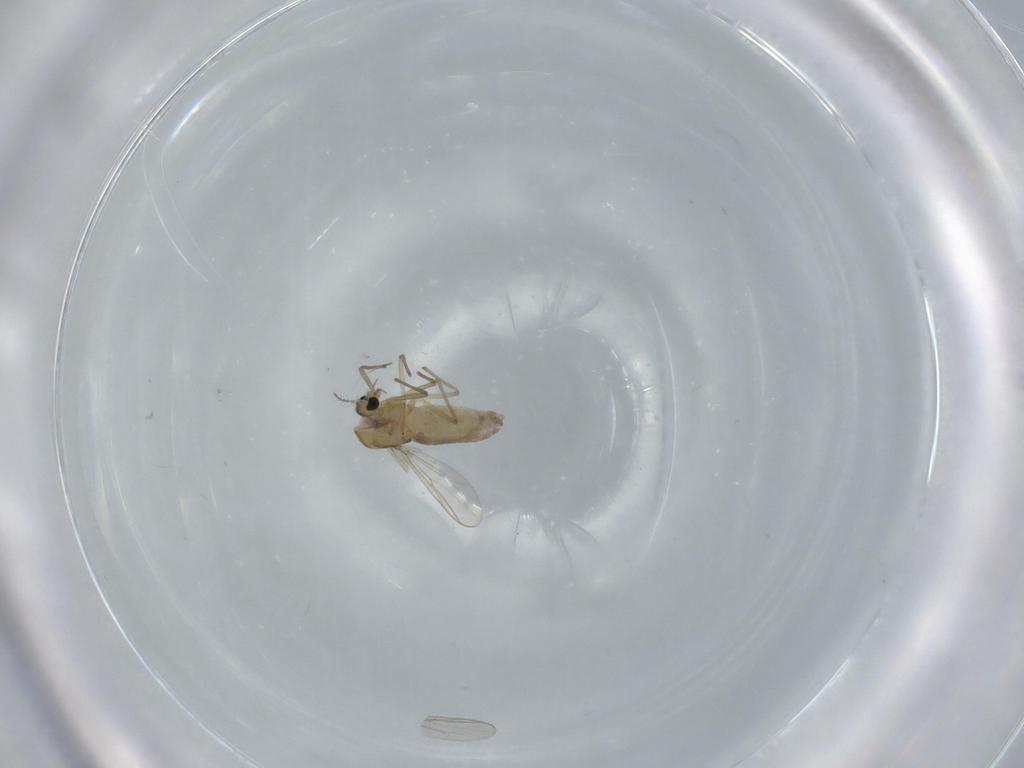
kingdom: Animalia
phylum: Arthropoda
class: Insecta
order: Diptera
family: Chironomidae
